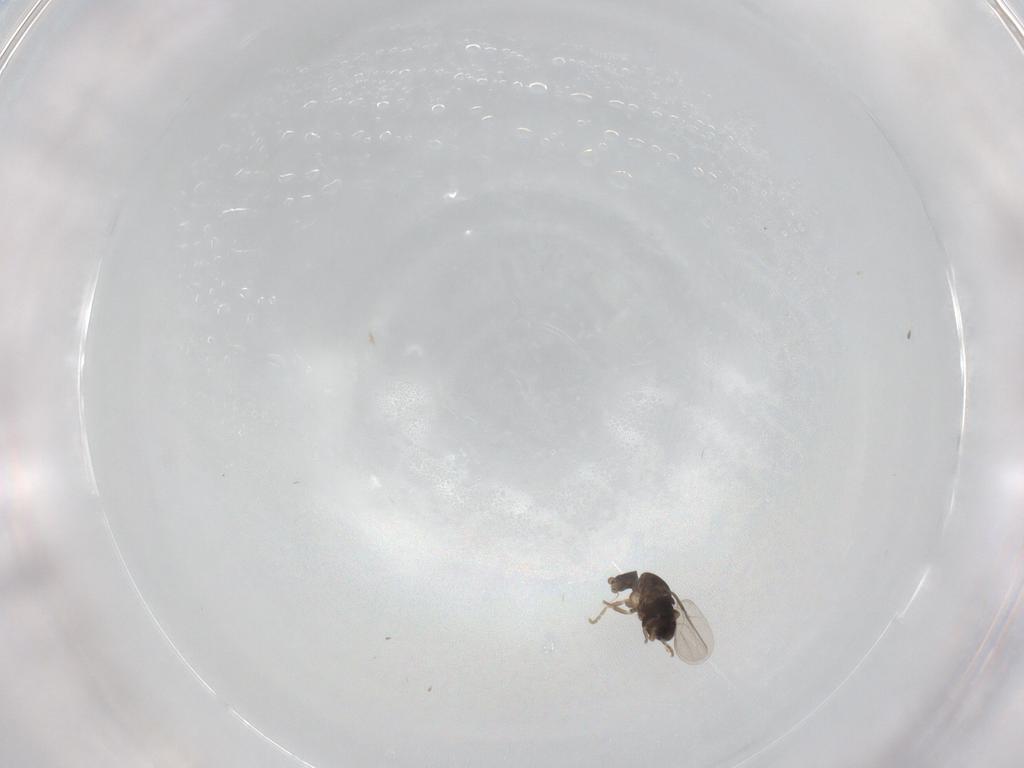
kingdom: Animalia
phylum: Arthropoda
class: Insecta
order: Diptera
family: Phoridae
